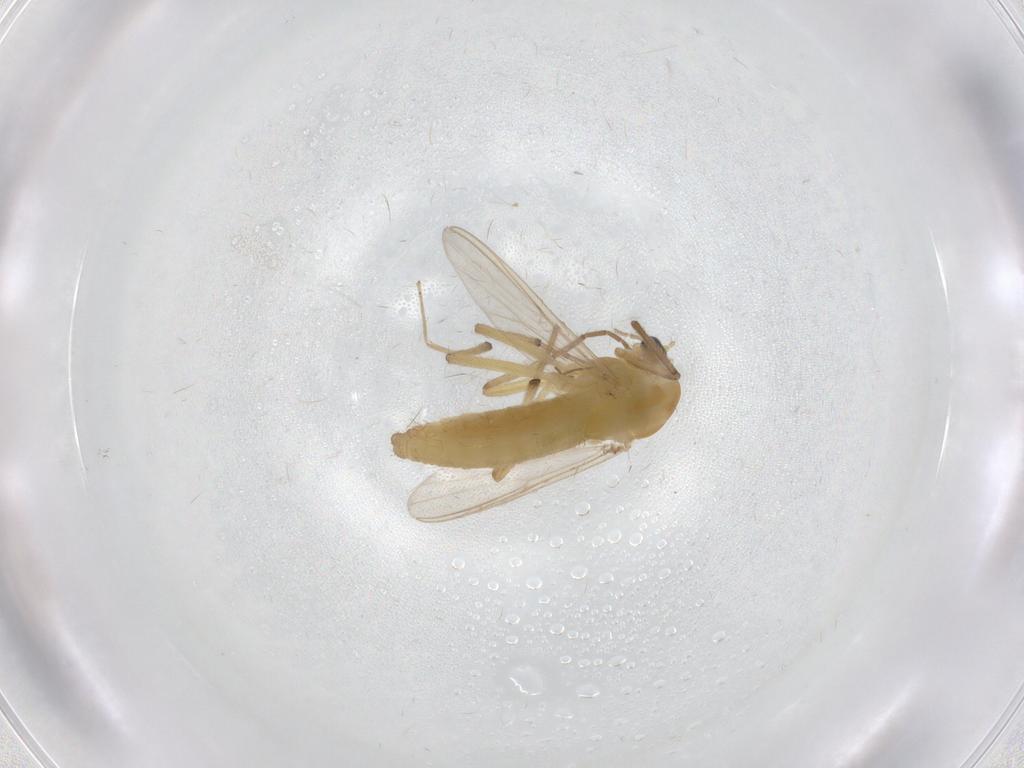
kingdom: Animalia
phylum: Arthropoda
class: Insecta
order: Diptera
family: Chironomidae
